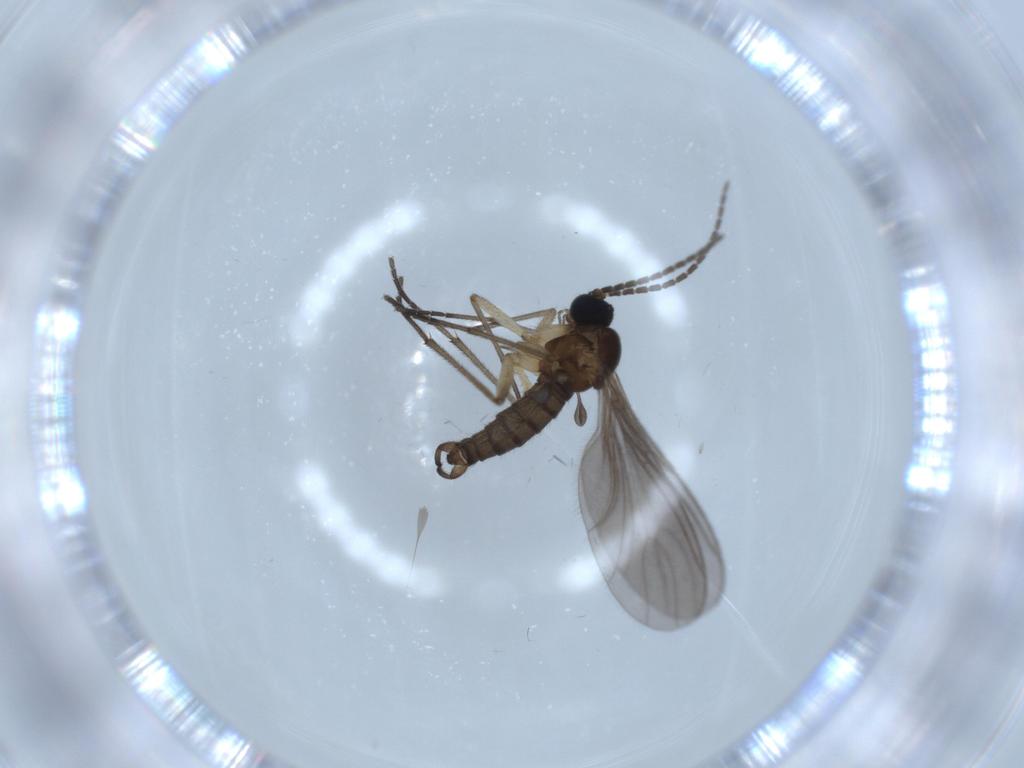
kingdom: Animalia
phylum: Arthropoda
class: Insecta
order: Diptera
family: Sciaridae
